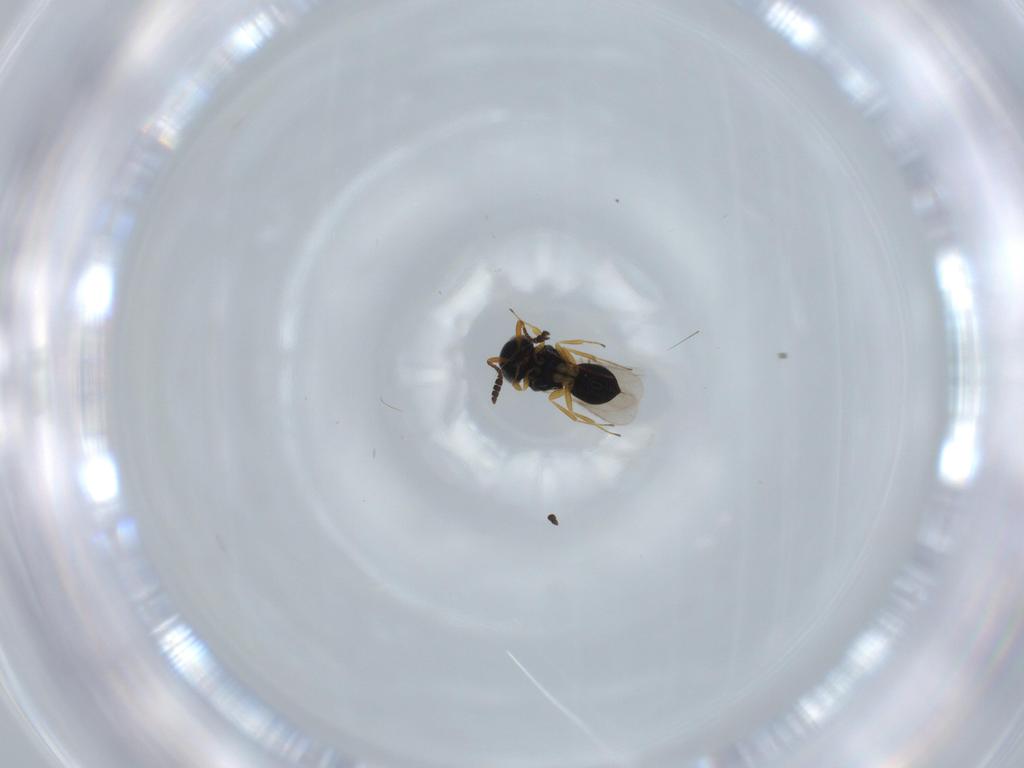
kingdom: Animalia
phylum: Arthropoda
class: Insecta
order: Hymenoptera
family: Scelionidae
